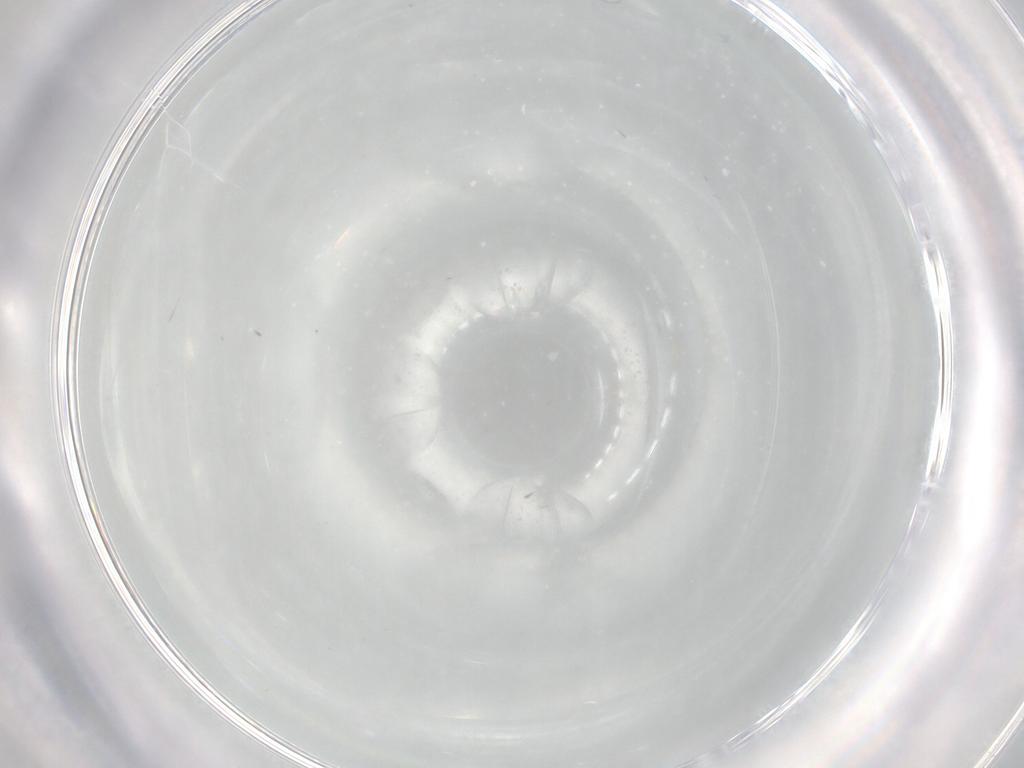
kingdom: Animalia
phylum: Arthropoda
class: Insecta
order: Diptera
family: Cecidomyiidae
